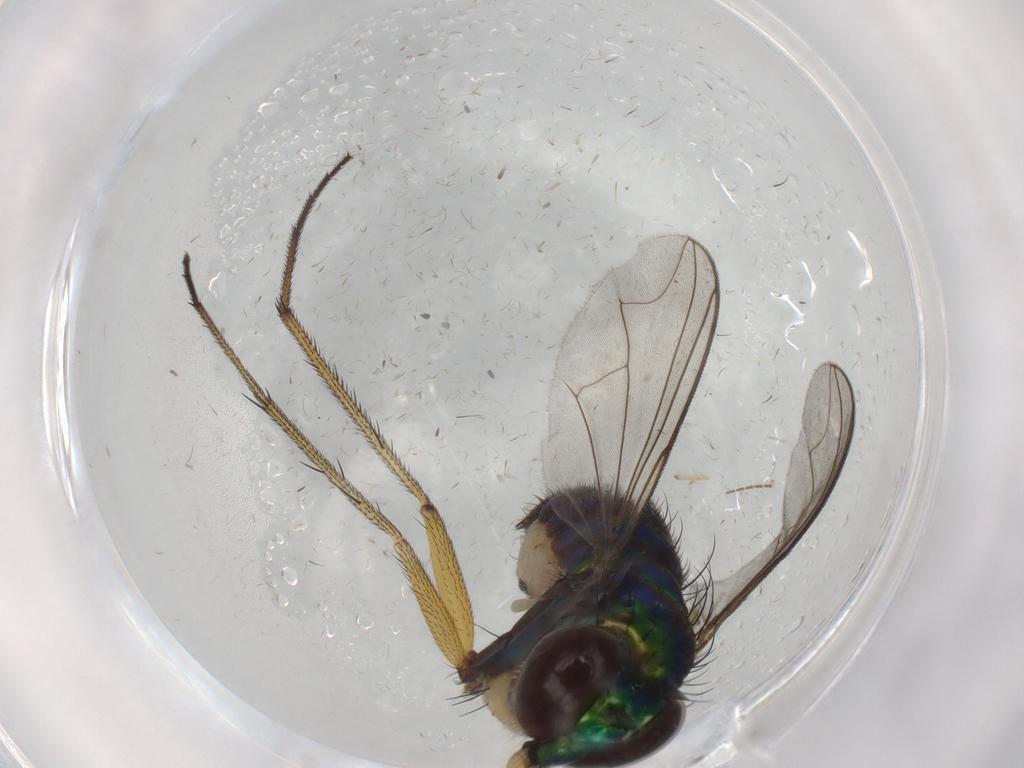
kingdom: Animalia
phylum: Arthropoda
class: Insecta
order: Diptera
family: Dolichopodidae
